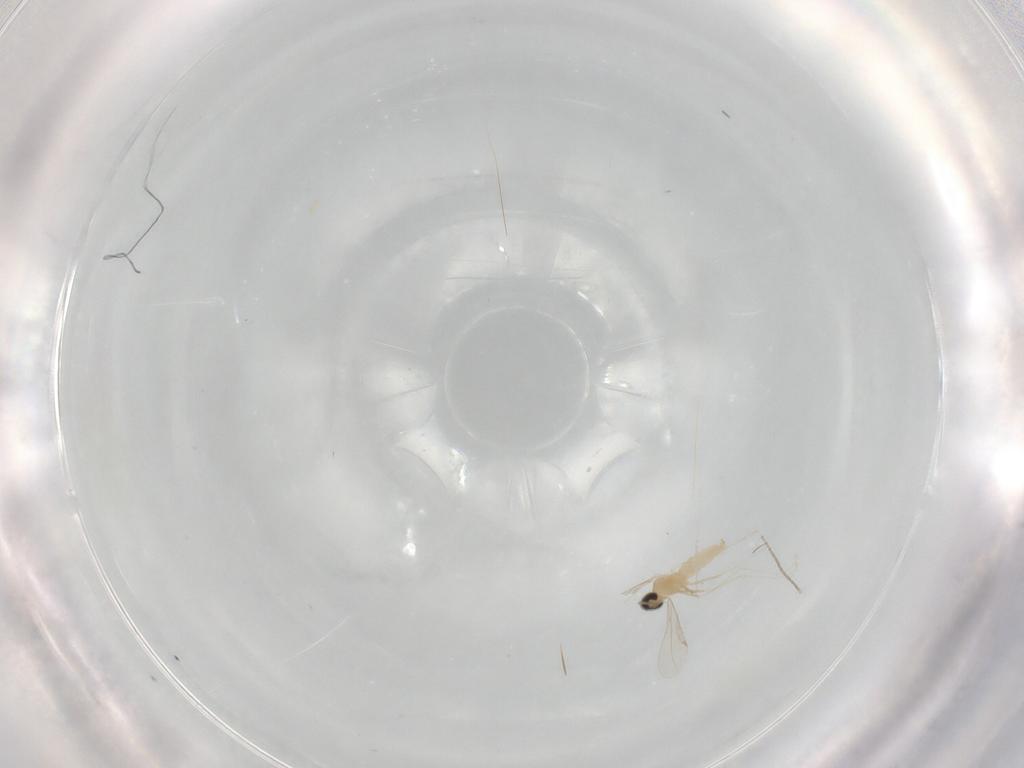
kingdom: Animalia
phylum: Arthropoda
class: Insecta
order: Diptera
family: Cecidomyiidae
